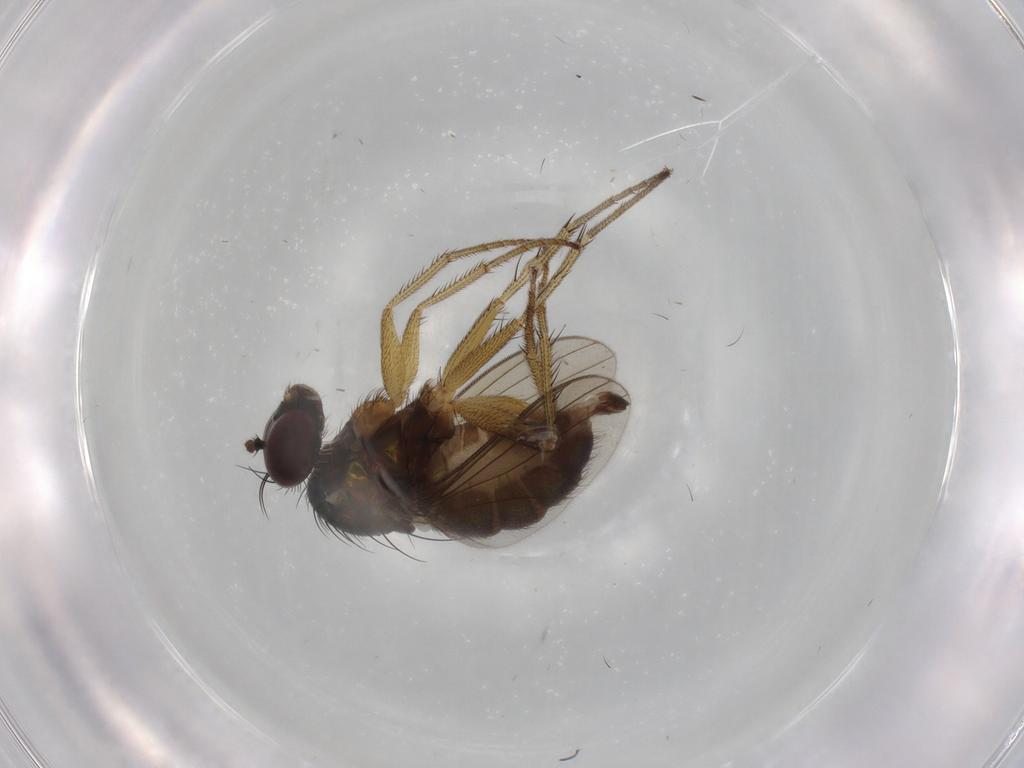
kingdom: Animalia
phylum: Arthropoda
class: Insecta
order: Diptera
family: Dolichopodidae
